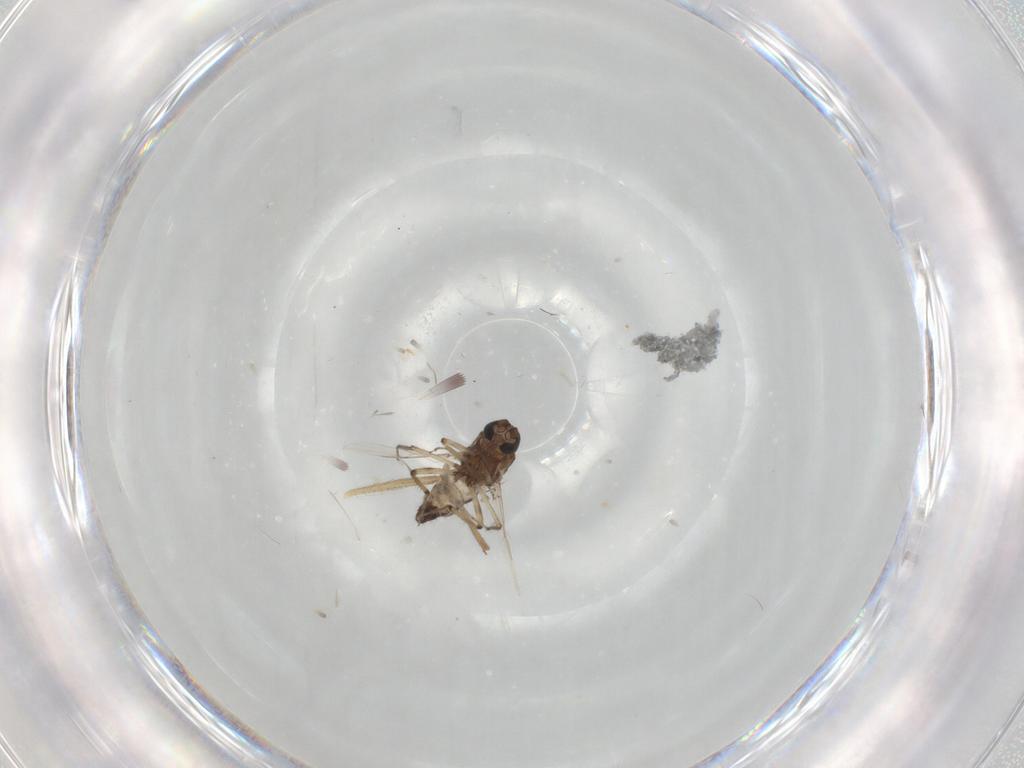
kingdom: Animalia
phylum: Arthropoda
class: Insecta
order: Diptera
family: Ceratopogonidae
